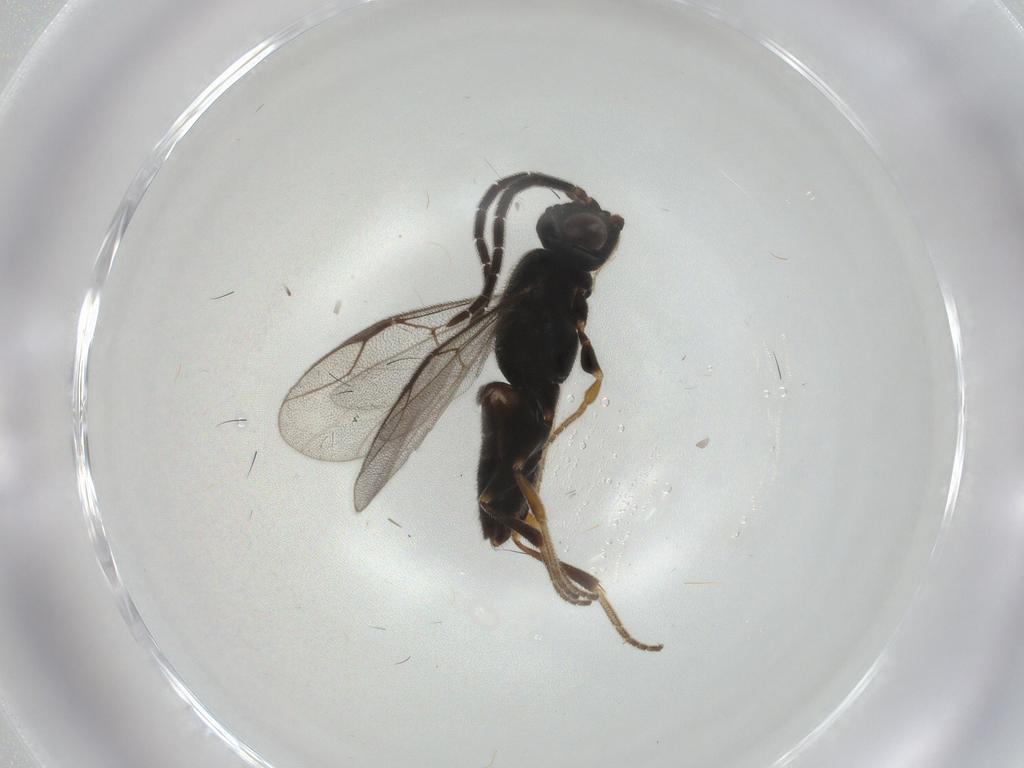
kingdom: Animalia
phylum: Arthropoda
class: Insecta
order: Hymenoptera
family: Dryinidae
